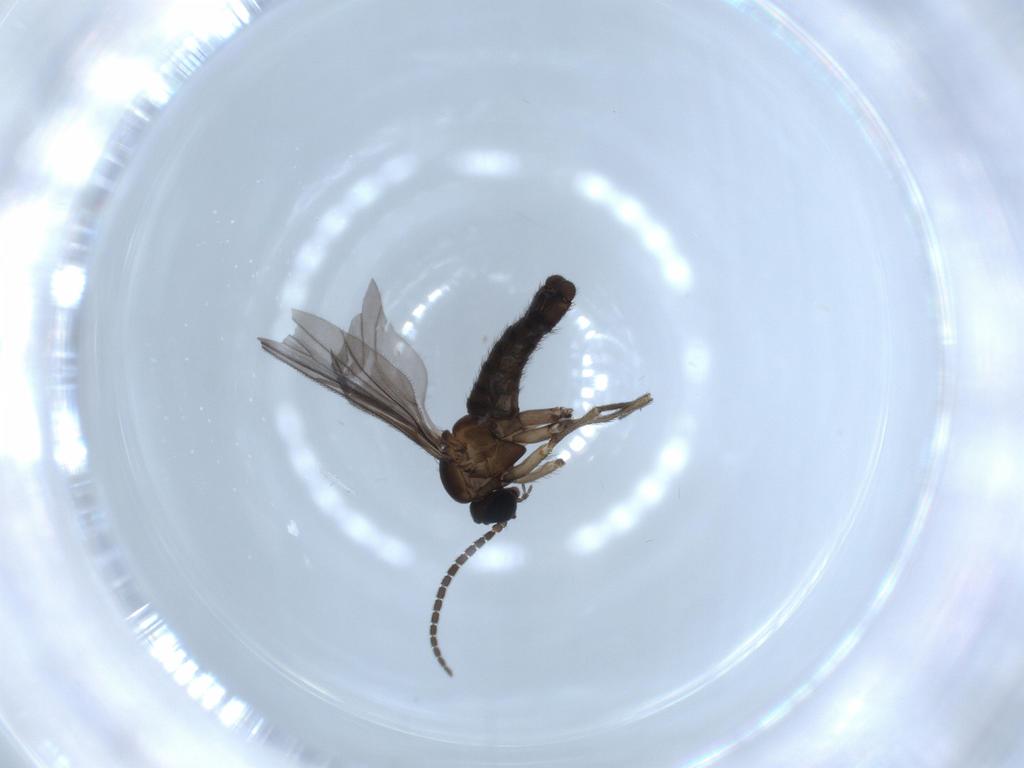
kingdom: Animalia
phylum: Arthropoda
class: Insecta
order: Diptera
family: Sciaridae
